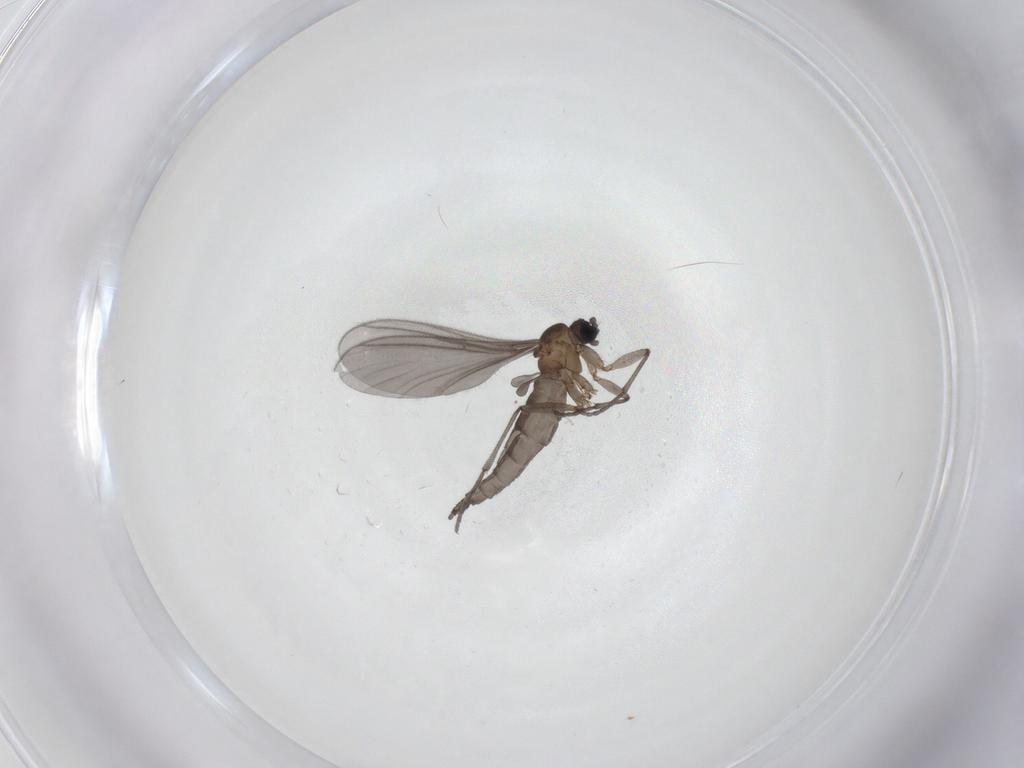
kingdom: Animalia
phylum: Arthropoda
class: Insecta
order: Diptera
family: Sciaridae
